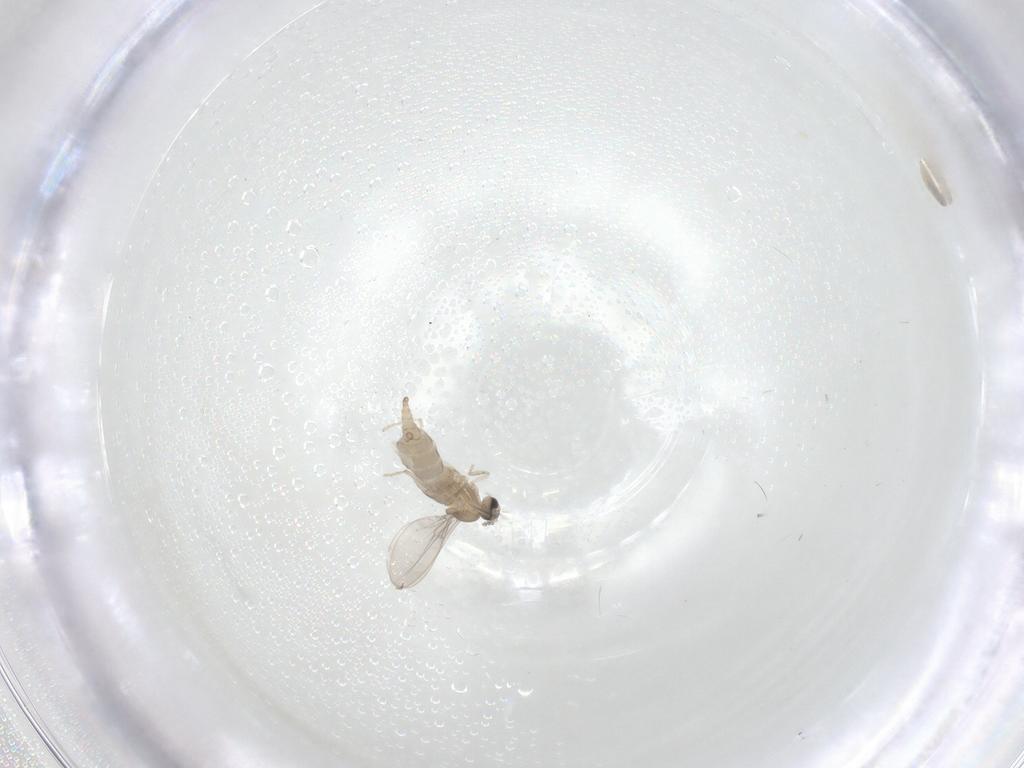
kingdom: Animalia
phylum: Arthropoda
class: Insecta
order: Diptera
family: Cecidomyiidae
